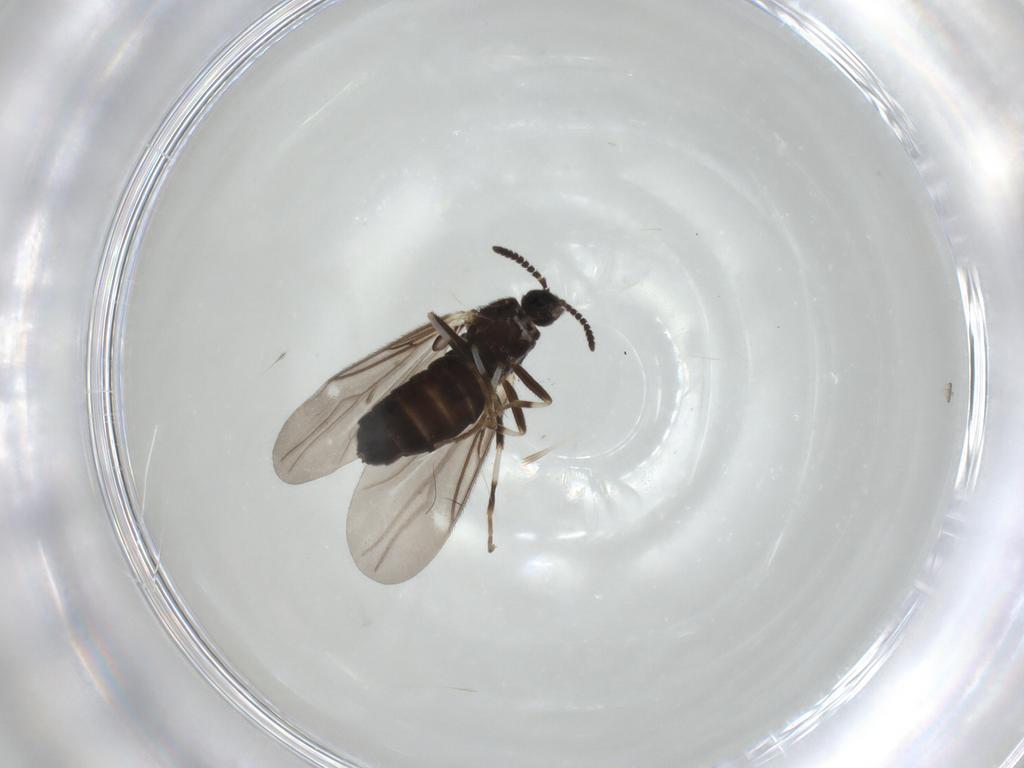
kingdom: Animalia
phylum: Arthropoda
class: Insecta
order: Diptera
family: Scatopsidae
